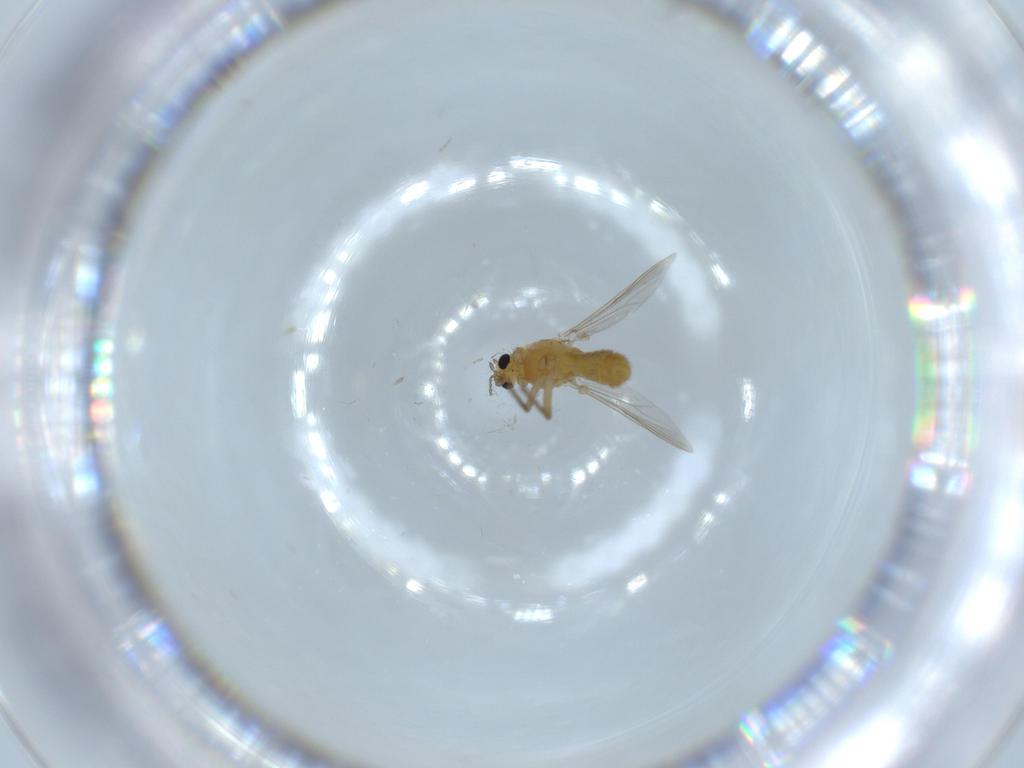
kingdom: Animalia
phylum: Arthropoda
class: Insecta
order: Diptera
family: Chironomidae
